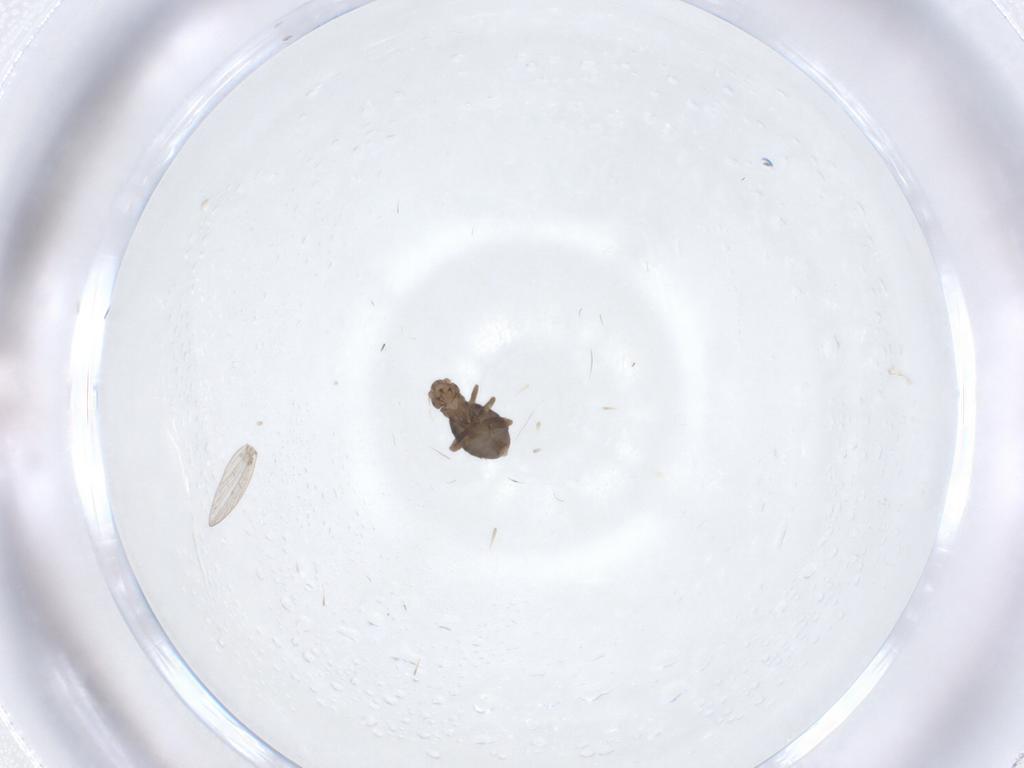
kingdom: Animalia
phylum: Arthropoda
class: Insecta
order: Diptera
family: Psychodidae
